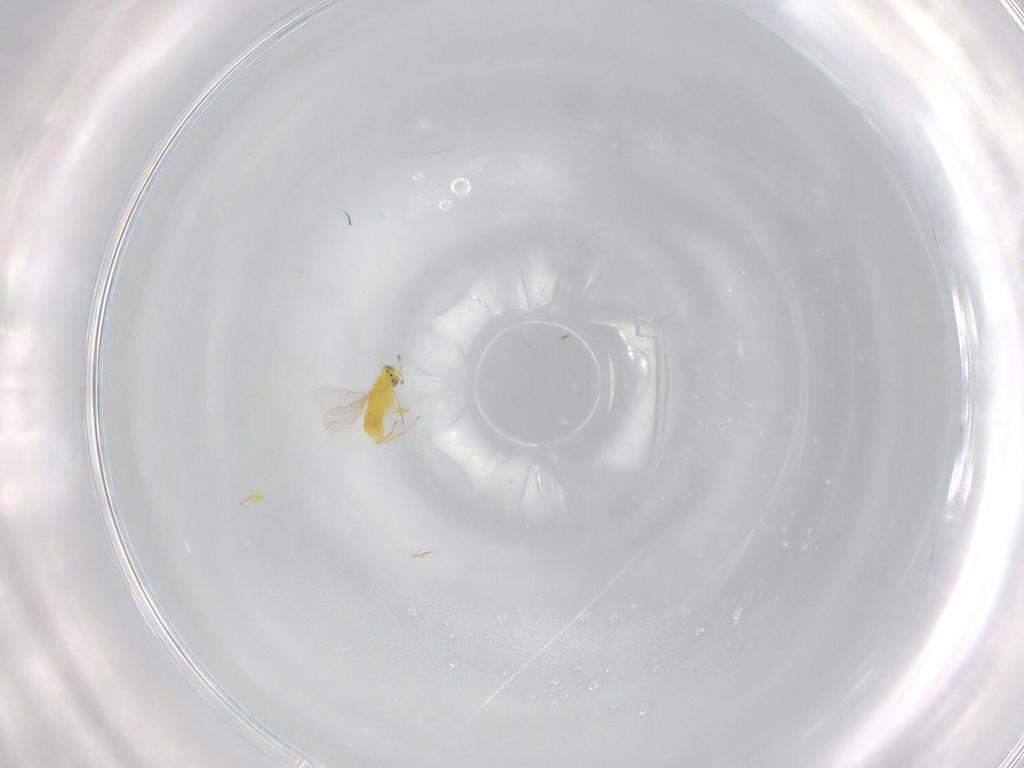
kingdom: Animalia
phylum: Arthropoda
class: Insecta
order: Hymenoptera
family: Aphelinidae
